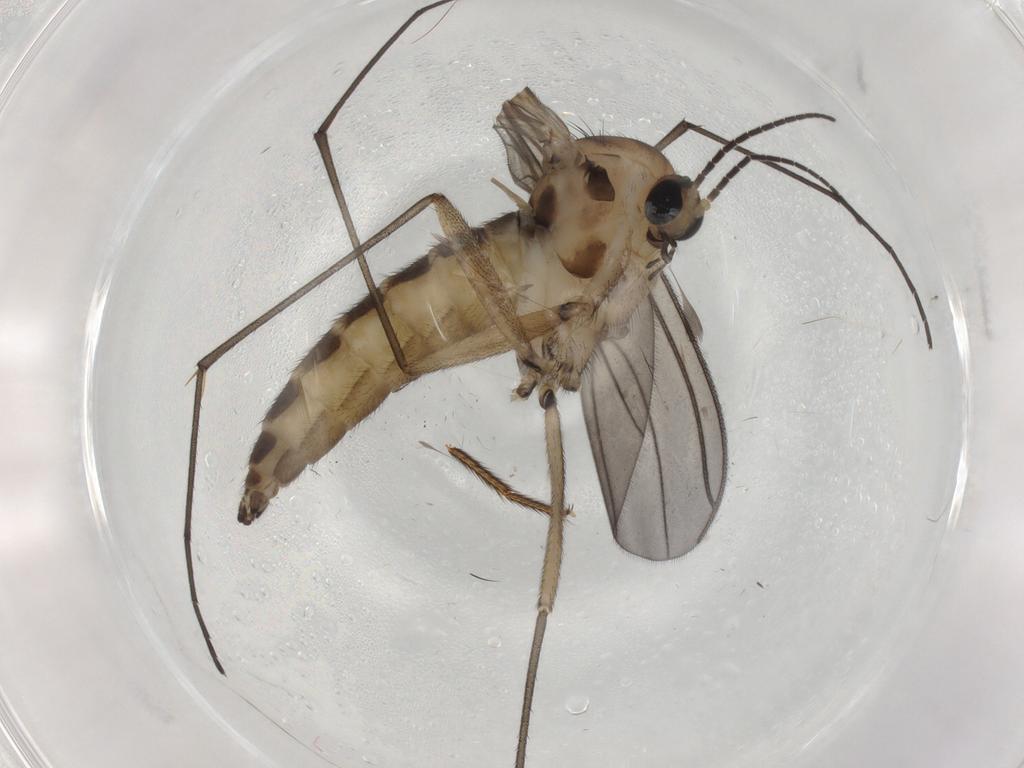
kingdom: Animalia
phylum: Arthropoda
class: Insecta
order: Diptera
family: Sciaridae
